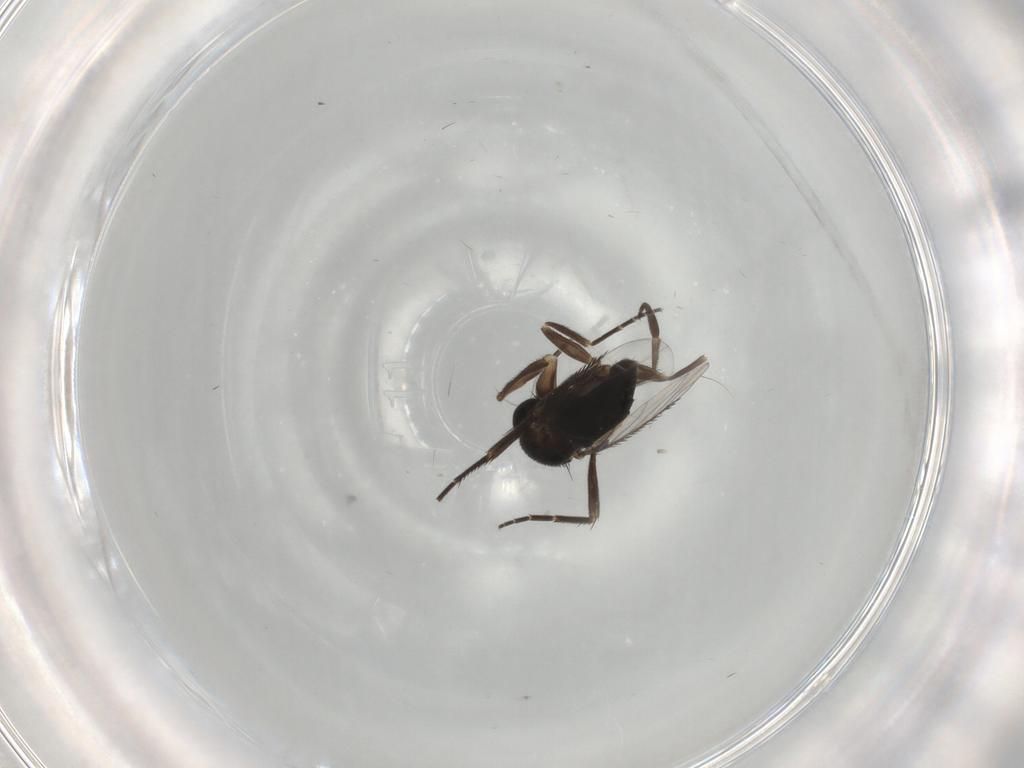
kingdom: Animalia
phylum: Arthropoda
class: Insecta
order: Diptera
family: Phoridae
